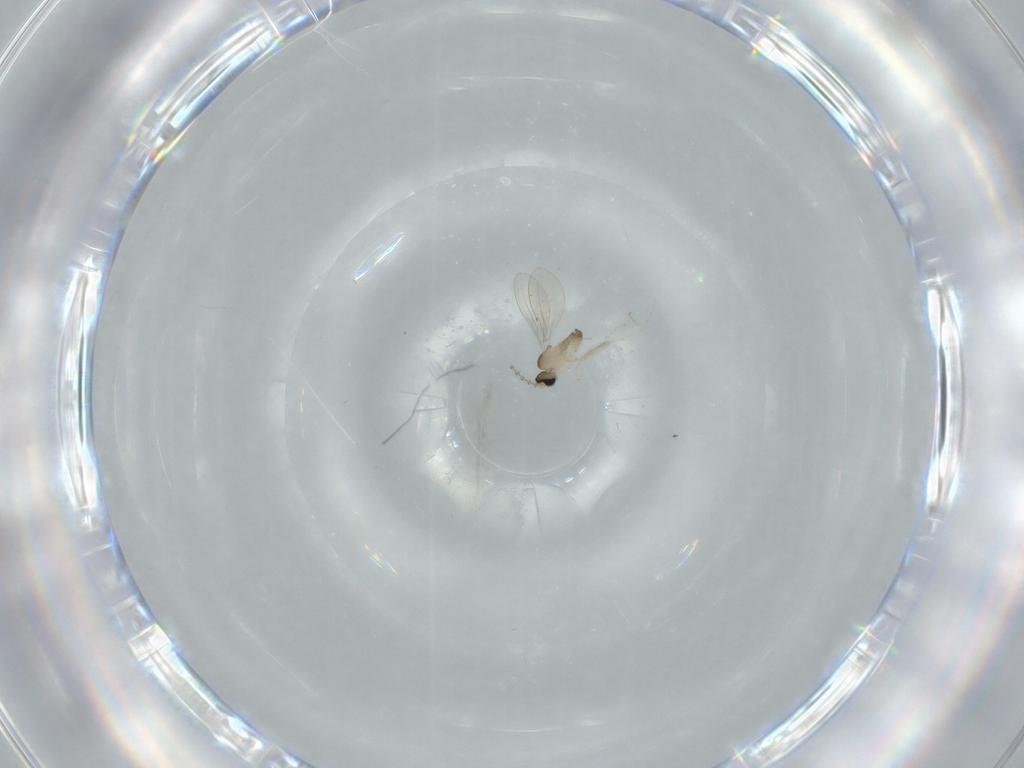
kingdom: Animalia
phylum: Arthropoda
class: Insecta
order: Diptera
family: Cecidomyiidae
